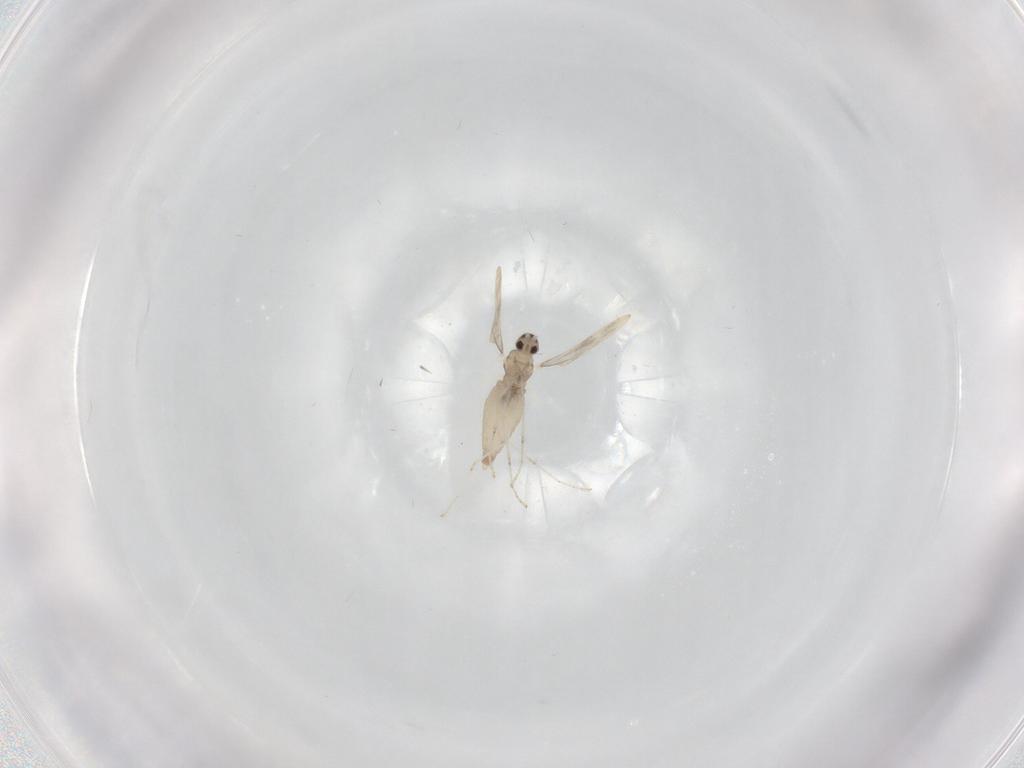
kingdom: Animalia
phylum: Arthropoda
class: Insecta
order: Diptera
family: Cecidomyiidae
